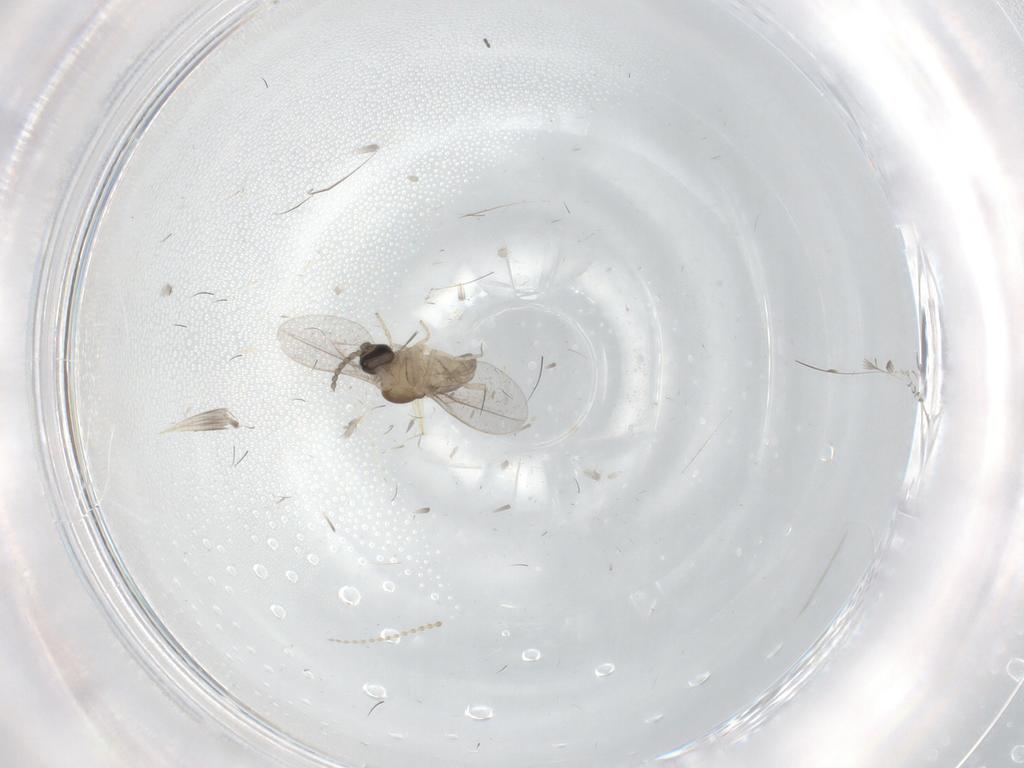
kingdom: Animalia
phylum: Arthropoda
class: Insecta
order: Diptera
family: Cecidomyiidae
